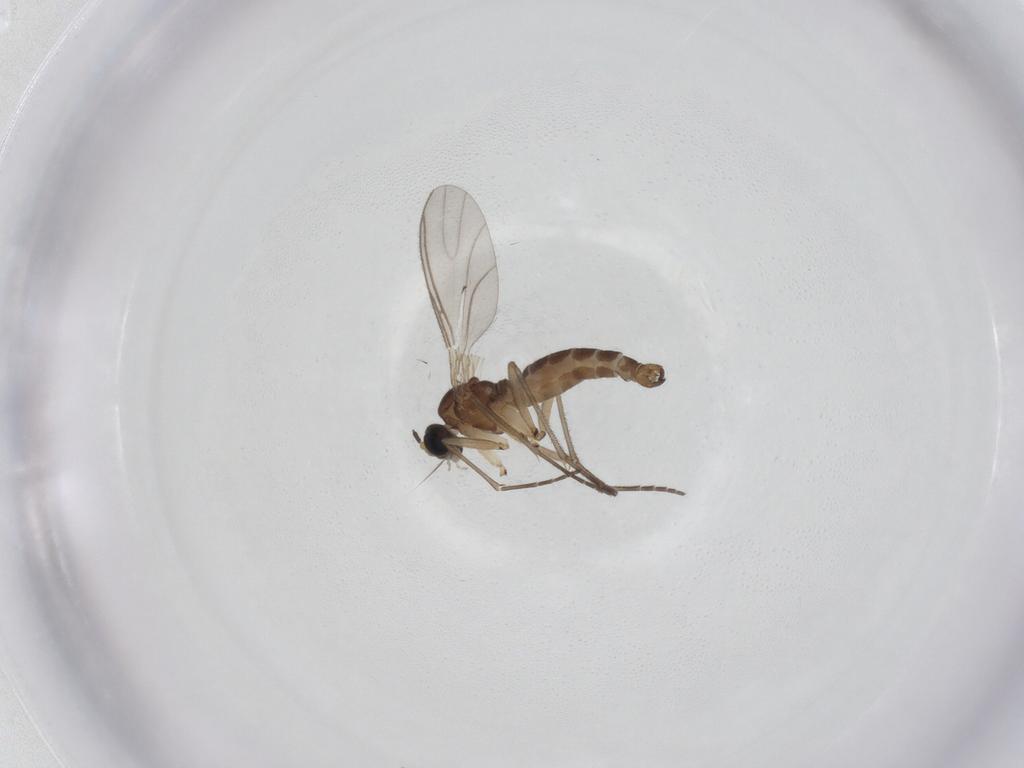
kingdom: Animalia
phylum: Arthropoda
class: Insecta
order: Diptera
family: Sciaridae
